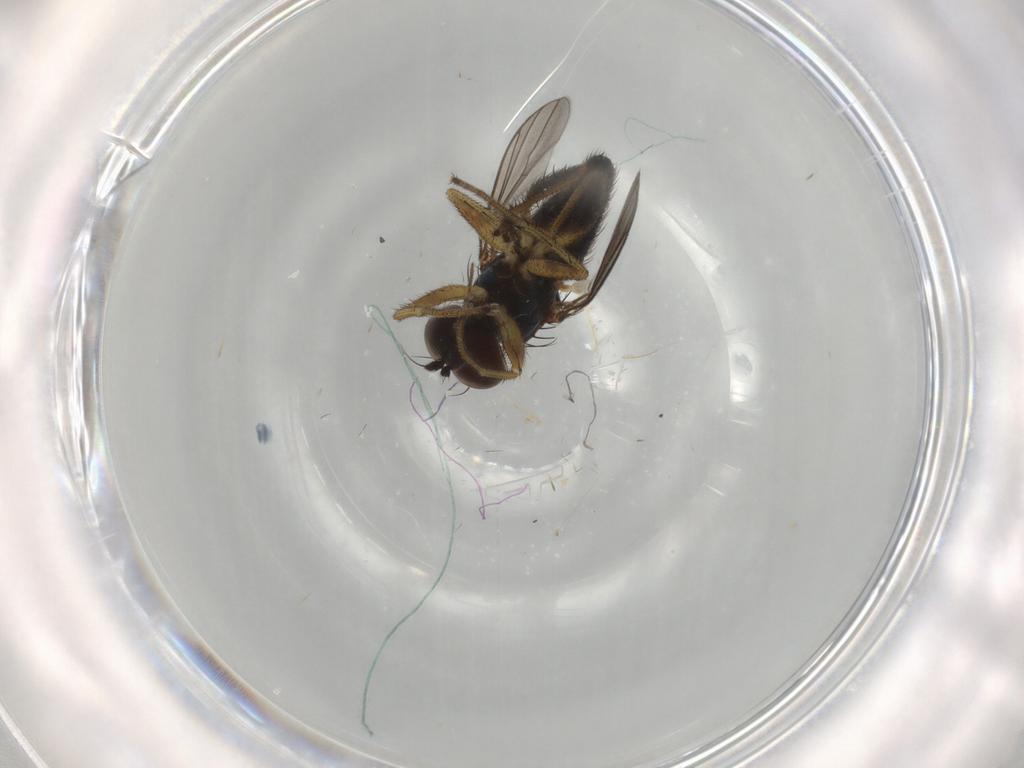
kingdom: Animalia
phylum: Arthropoda
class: Insecta
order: Diptera
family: Dolichopodidae
